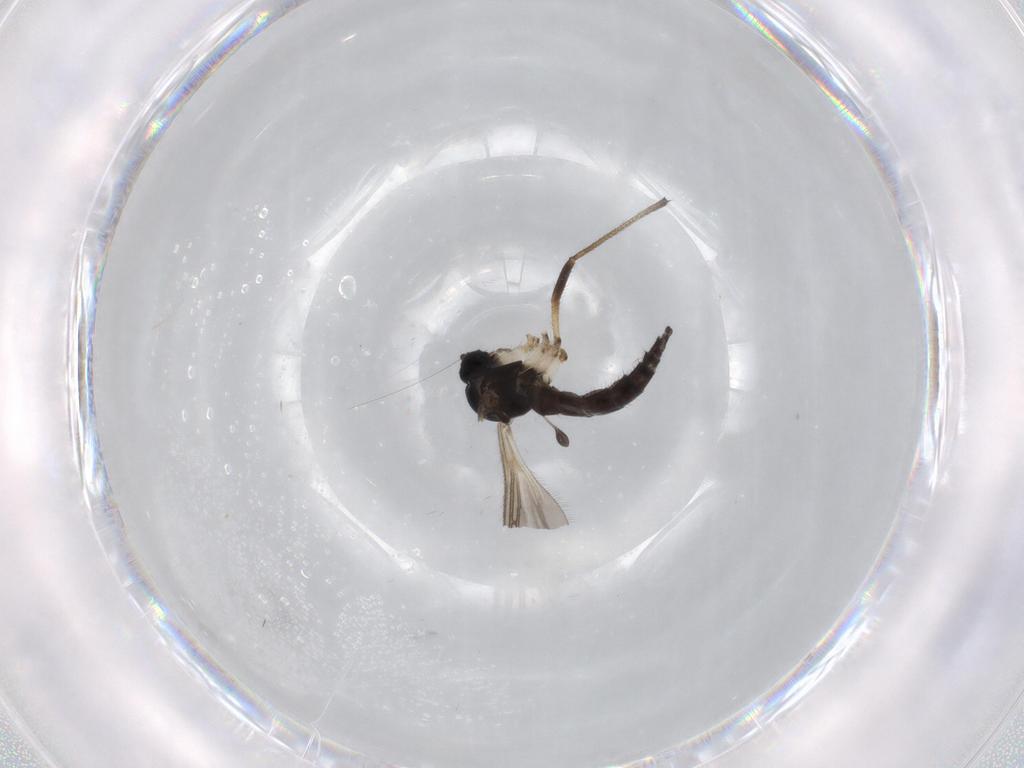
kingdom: Animalia
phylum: Arthropoda
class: Insecta
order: Diptera
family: Sciaridae
